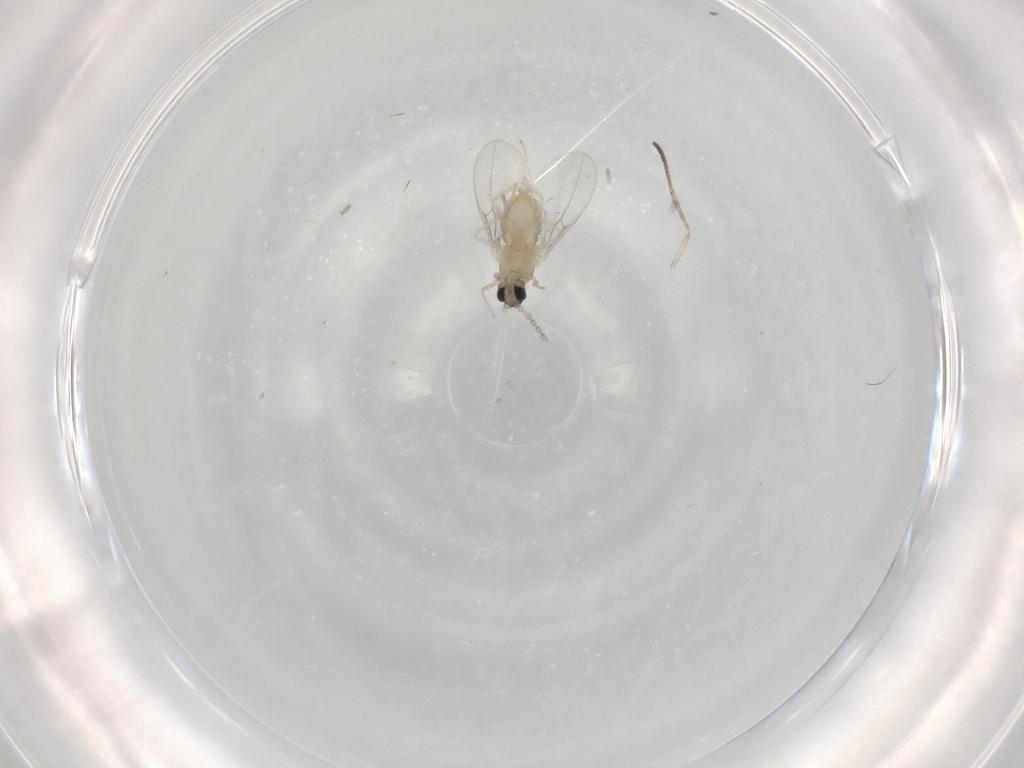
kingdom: Animalia
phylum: Arthropoda
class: Insecta
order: Diptera
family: Cecidomyiidae
